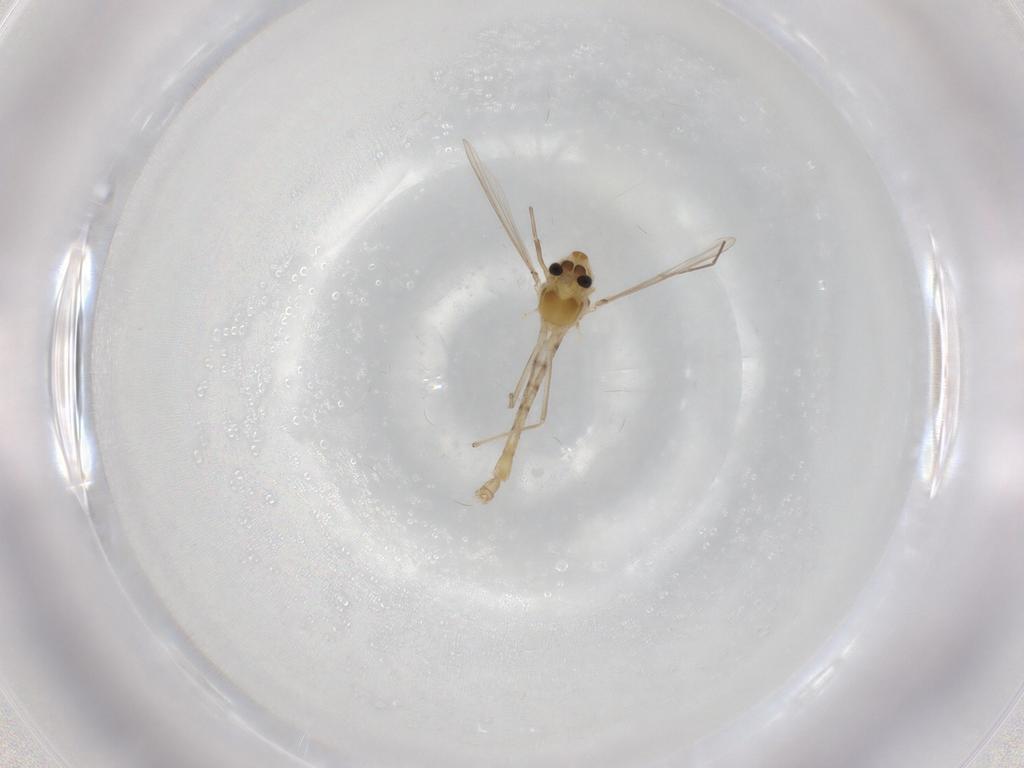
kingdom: Animalia
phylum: Arthropoda
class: Insecta
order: Diptera
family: Chironomidae
